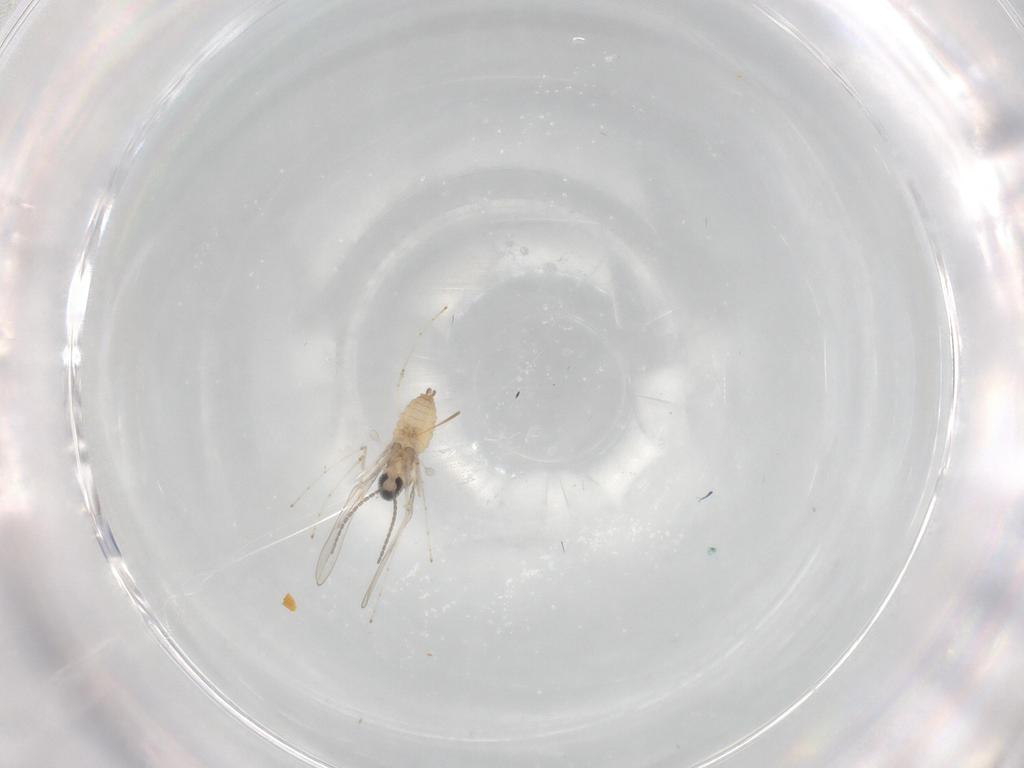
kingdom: Animalia
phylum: Arthropoda
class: Insecta
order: Diptera
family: Cecidomyiidae
